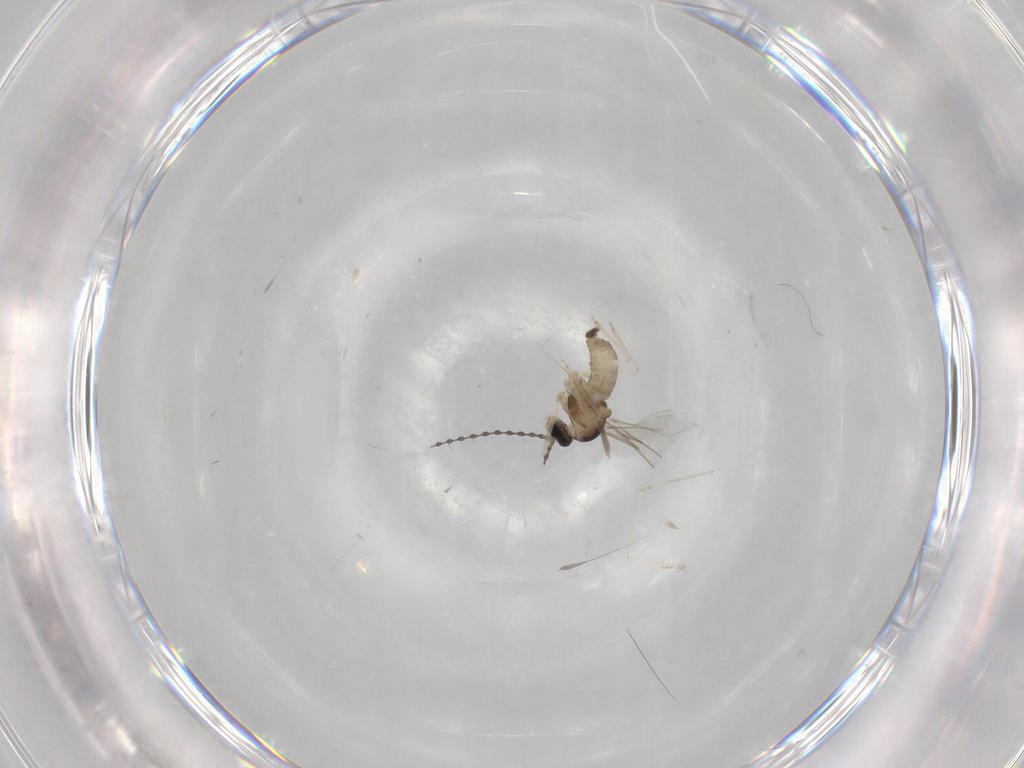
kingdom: Animalia
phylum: Arthropoda
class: Insecta
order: Diptera
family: Cecidomyiidae
